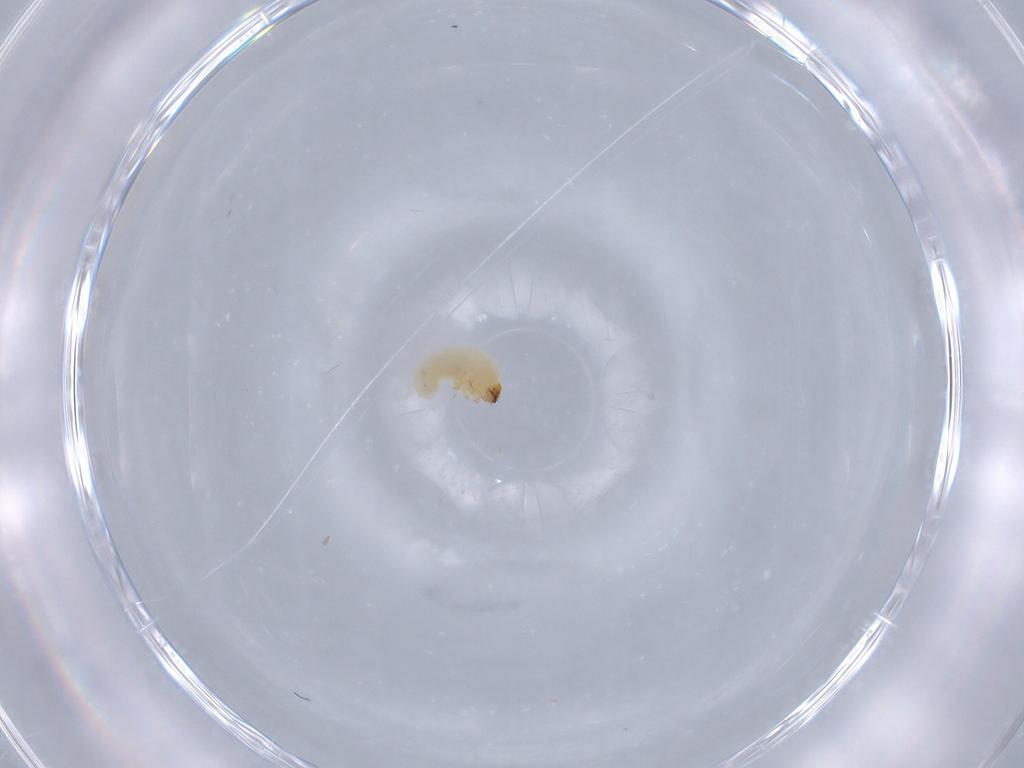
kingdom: Animalia
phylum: Arthropoda
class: Insecta
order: Coleoptera
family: Bostrichidae
